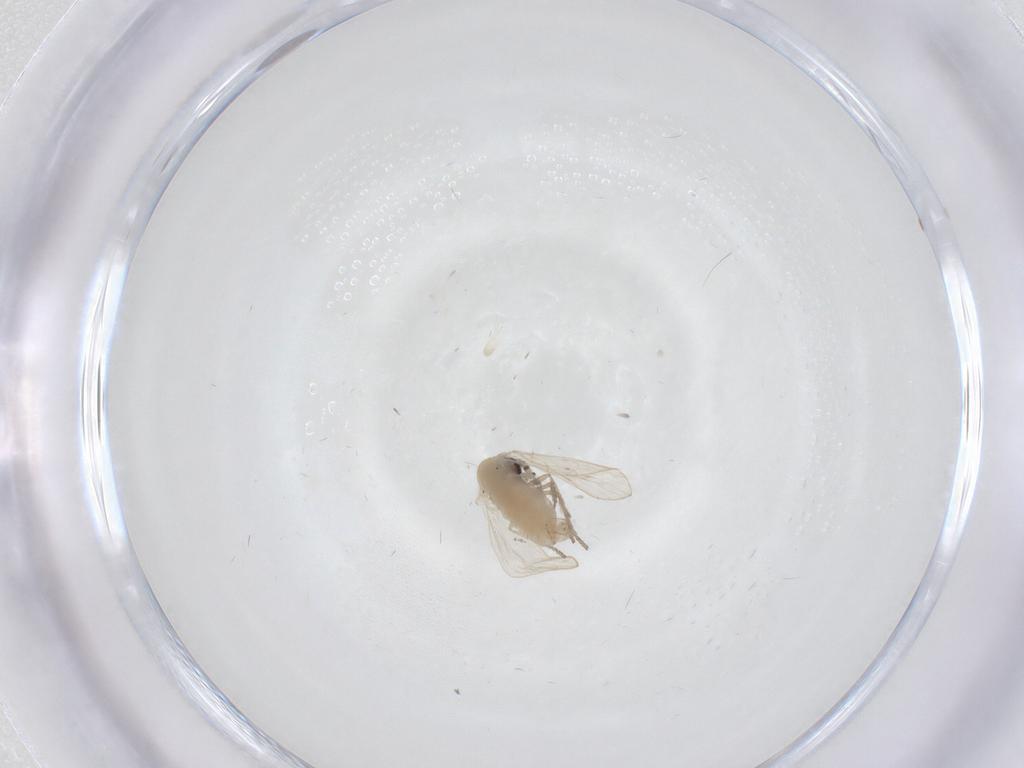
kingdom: Animalia
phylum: Arthropoda
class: Insecta
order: Diptera
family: Psychodidae
